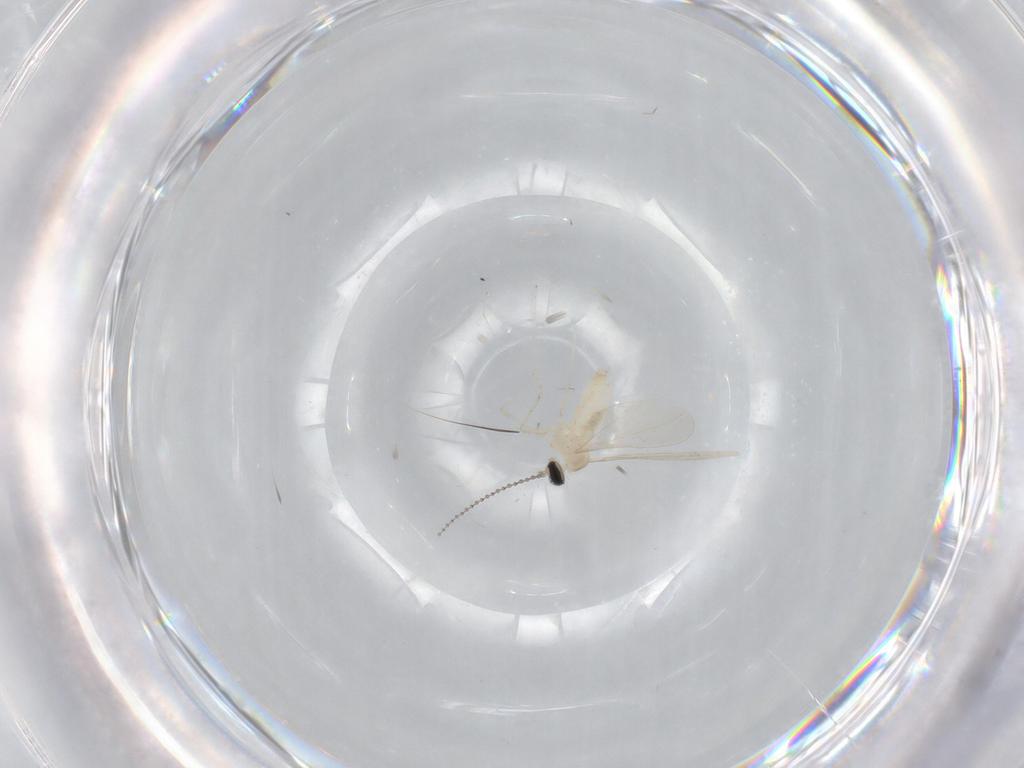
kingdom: Animalia
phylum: Arthropoda
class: Insecta
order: Diptera
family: Cecidomyiidae
